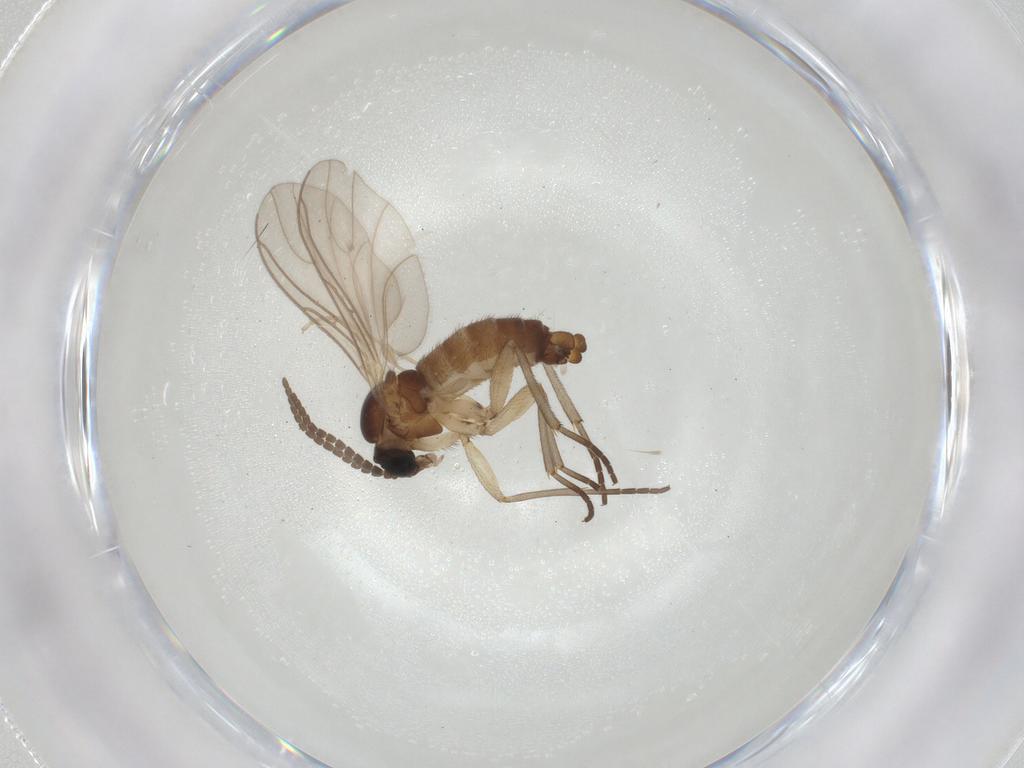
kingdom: Animalia
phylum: Arthropoda
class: Insecta
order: Diptera
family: Sciaridae
